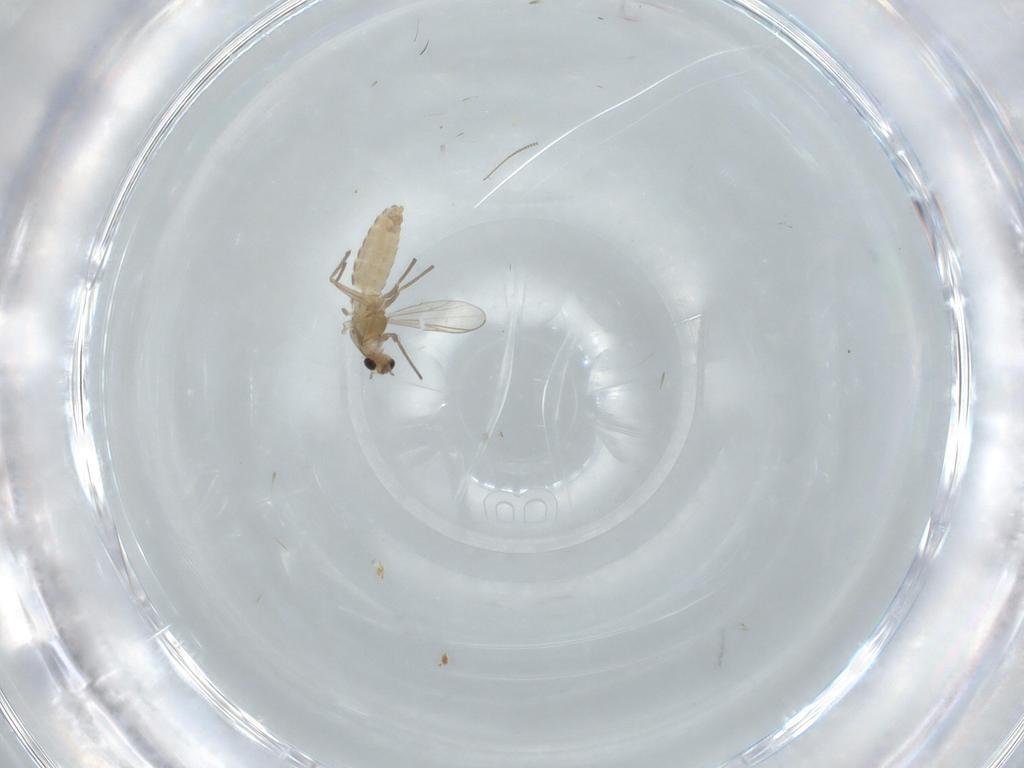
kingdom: Animalia
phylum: Arthropoda
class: Insecta
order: Diptera
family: Chironomidae
